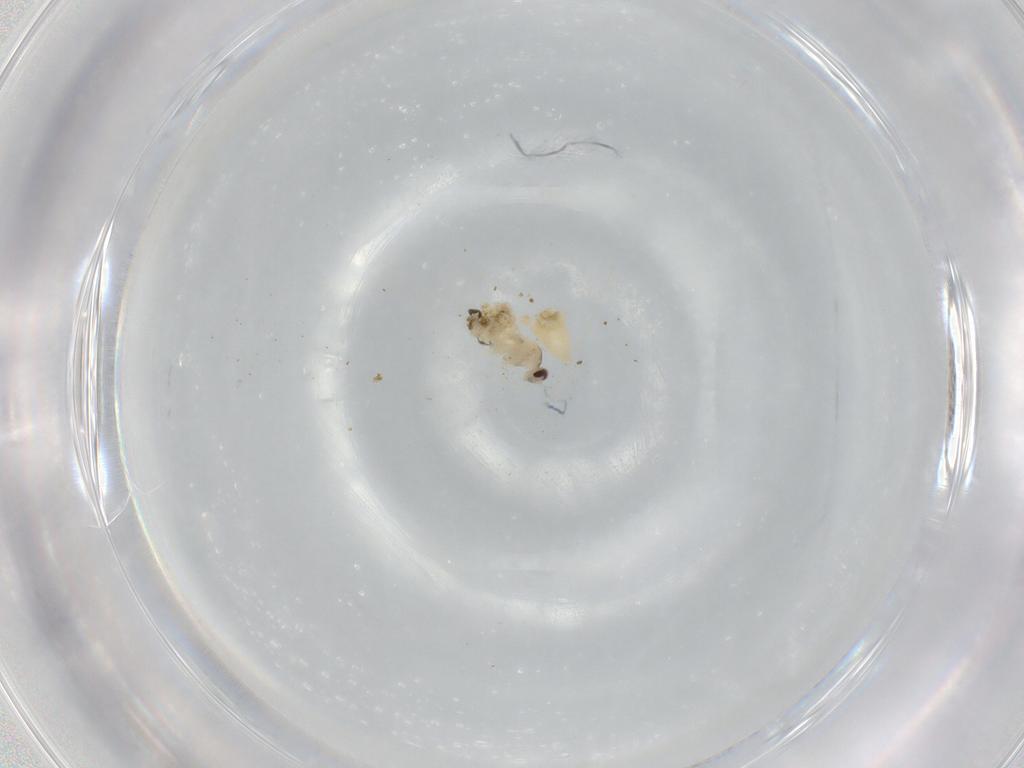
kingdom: Animalia
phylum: Arthropoda
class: Insecta
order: Diptera
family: Cecidomyiidae
